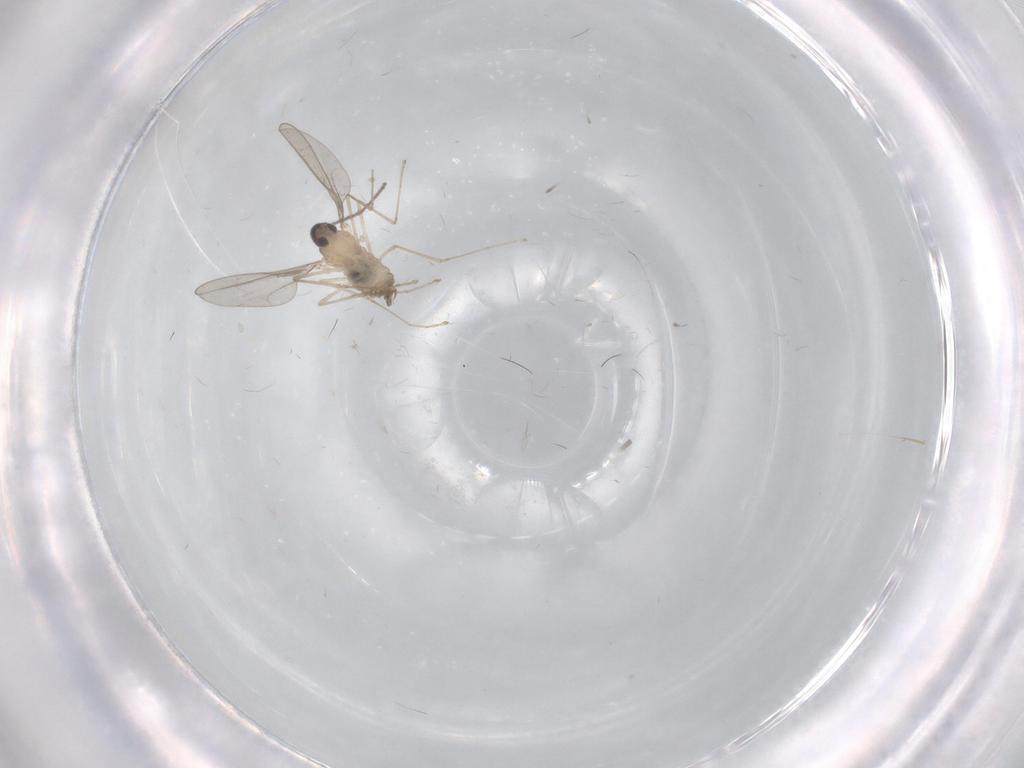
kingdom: Animalia
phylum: Arthropoda
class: Insecta
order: Diptera
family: Cecidomyiidae
